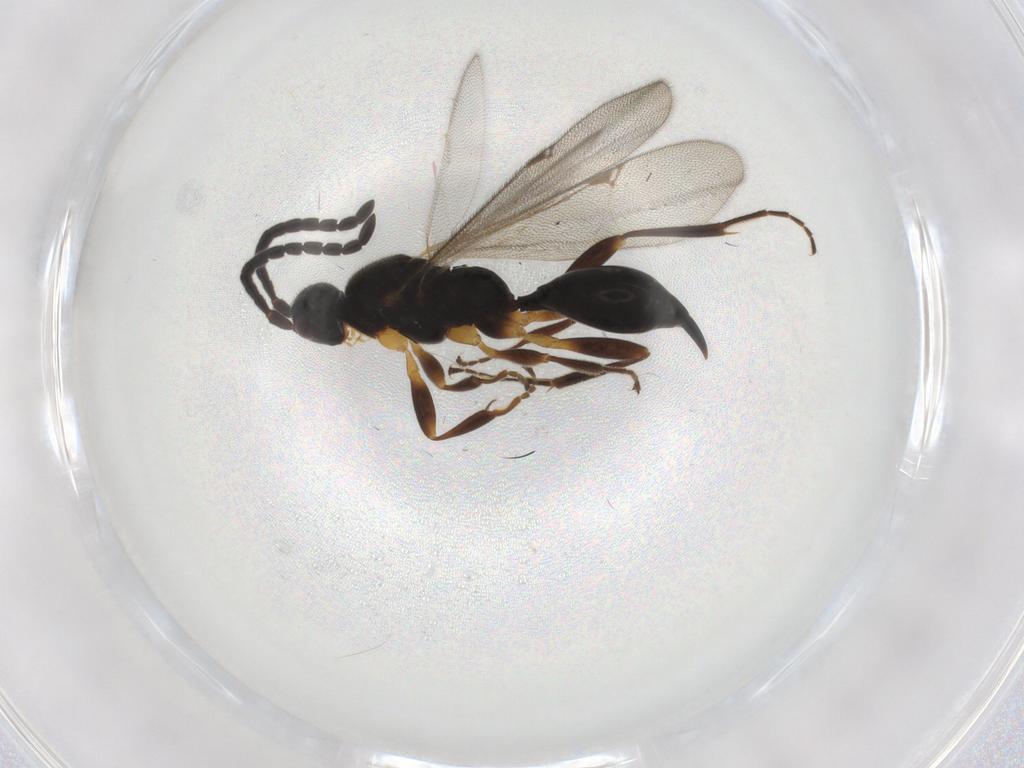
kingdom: Animalia
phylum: Arthropoda
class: Insecta
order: Hymenoptera
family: Proctotrupidae
